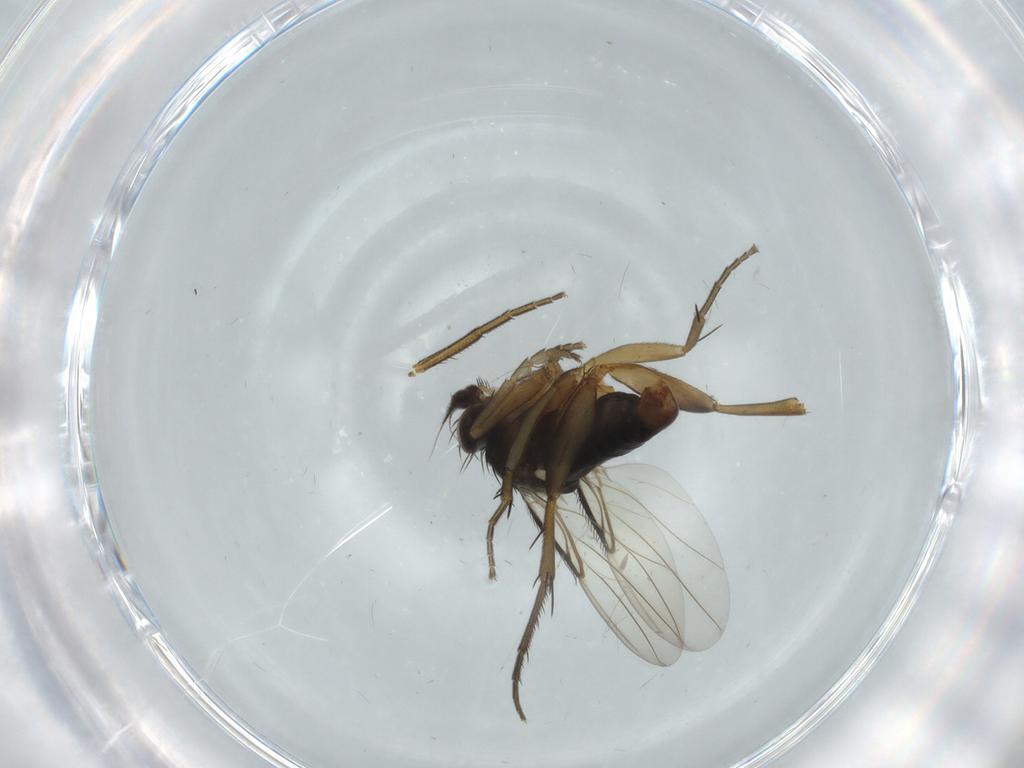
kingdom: Animalia
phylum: Arthropoda
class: Insecta
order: Diptera
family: Phoridae
